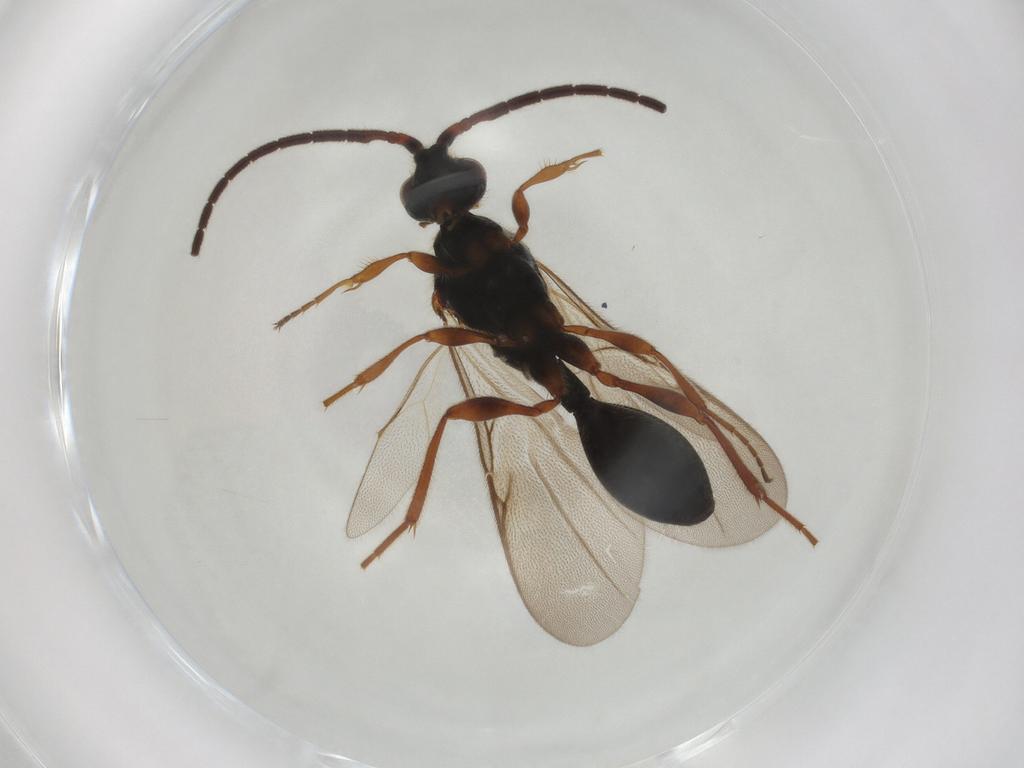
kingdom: Animalia
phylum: Arthropoda
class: Insecta
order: Hymenoptera
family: Ichneumonidae
